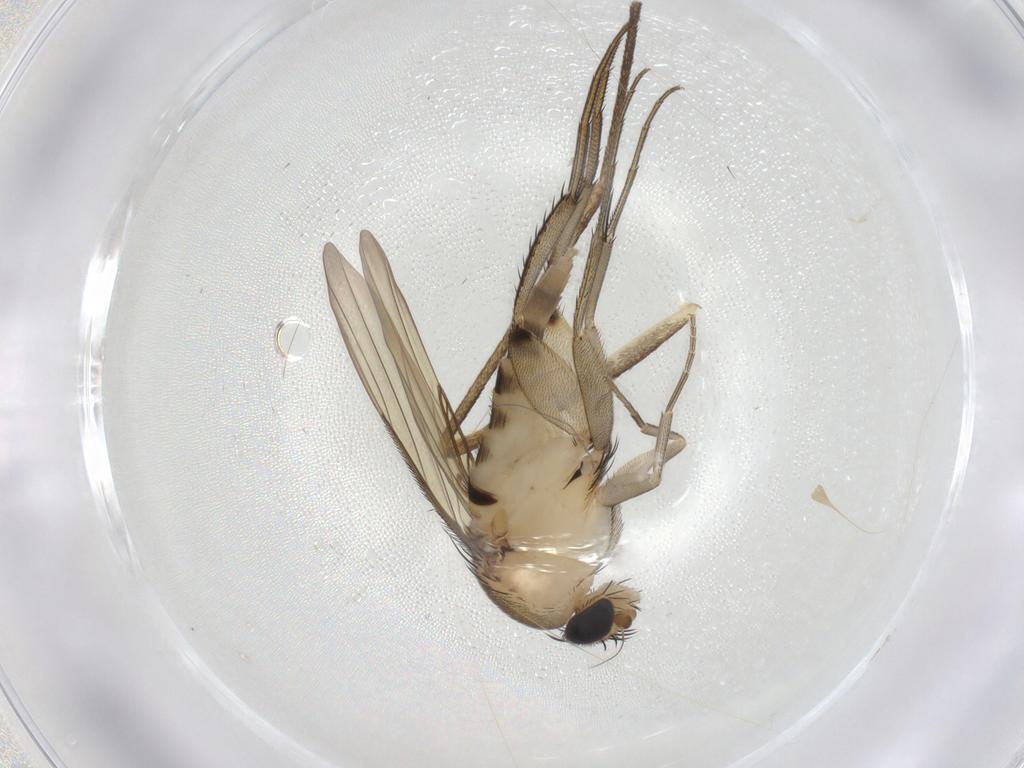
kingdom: Animalia
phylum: Arthropoda
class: Insecta
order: Diptera
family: Phoridae
